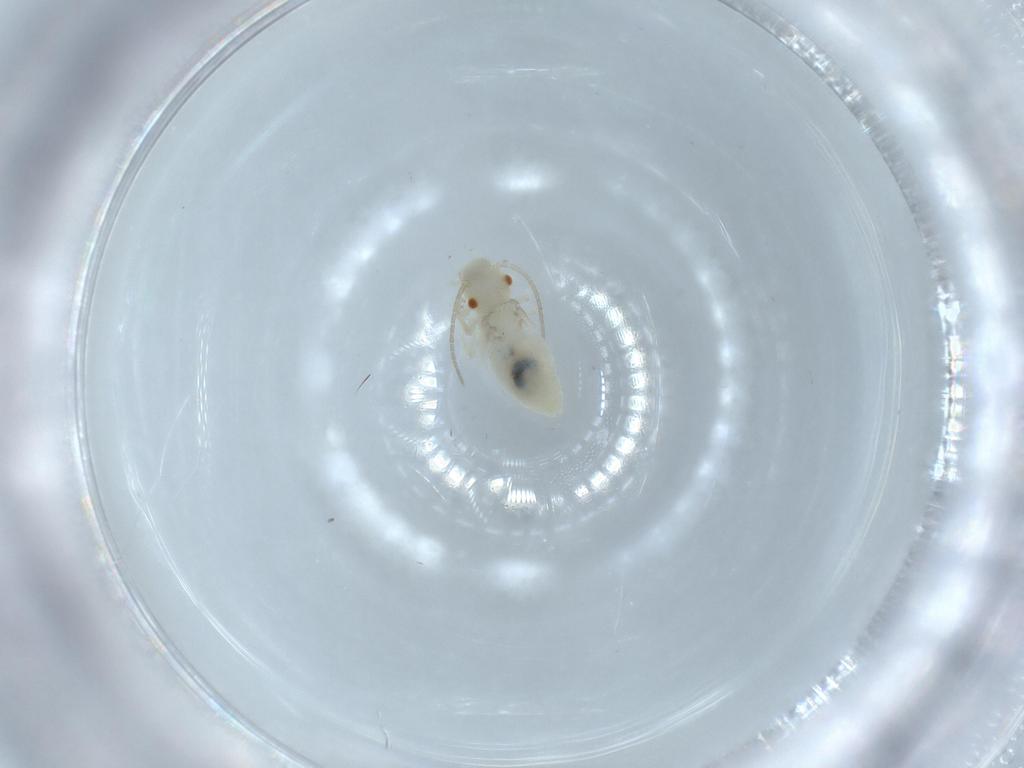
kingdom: Animalia
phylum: Arthropoda
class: Insecta
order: Psocodea
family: Caeciliusidae
